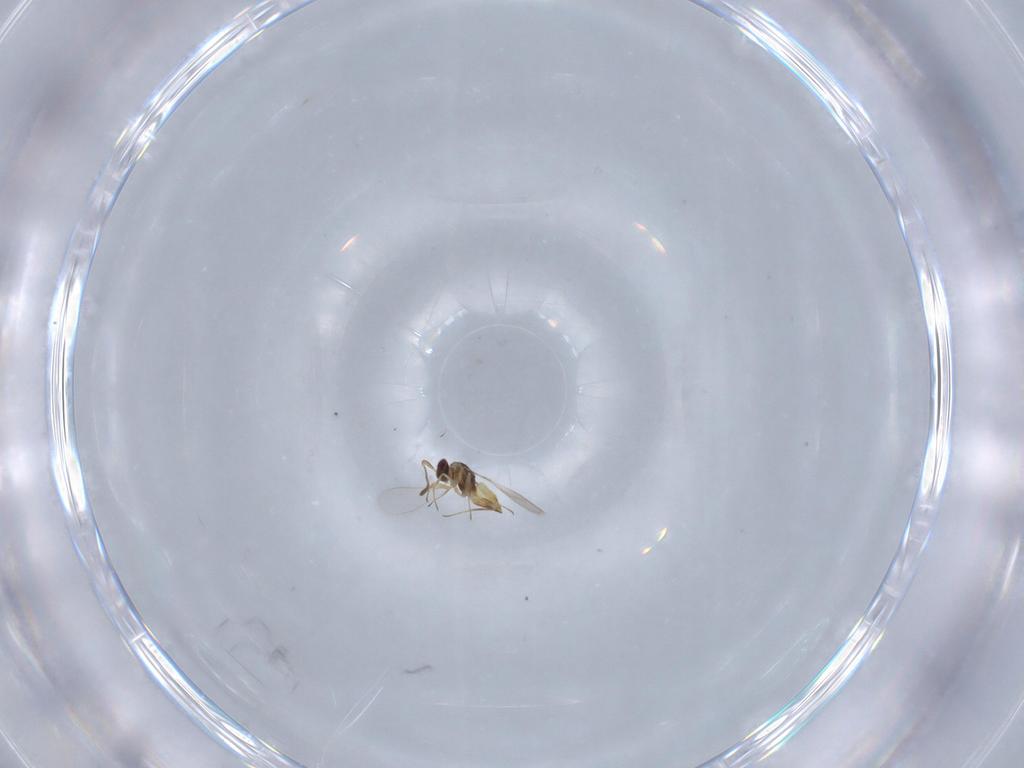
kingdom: Animalia
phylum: Arthropoda
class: Insecta
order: Hymenoptera
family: Mymaridae
